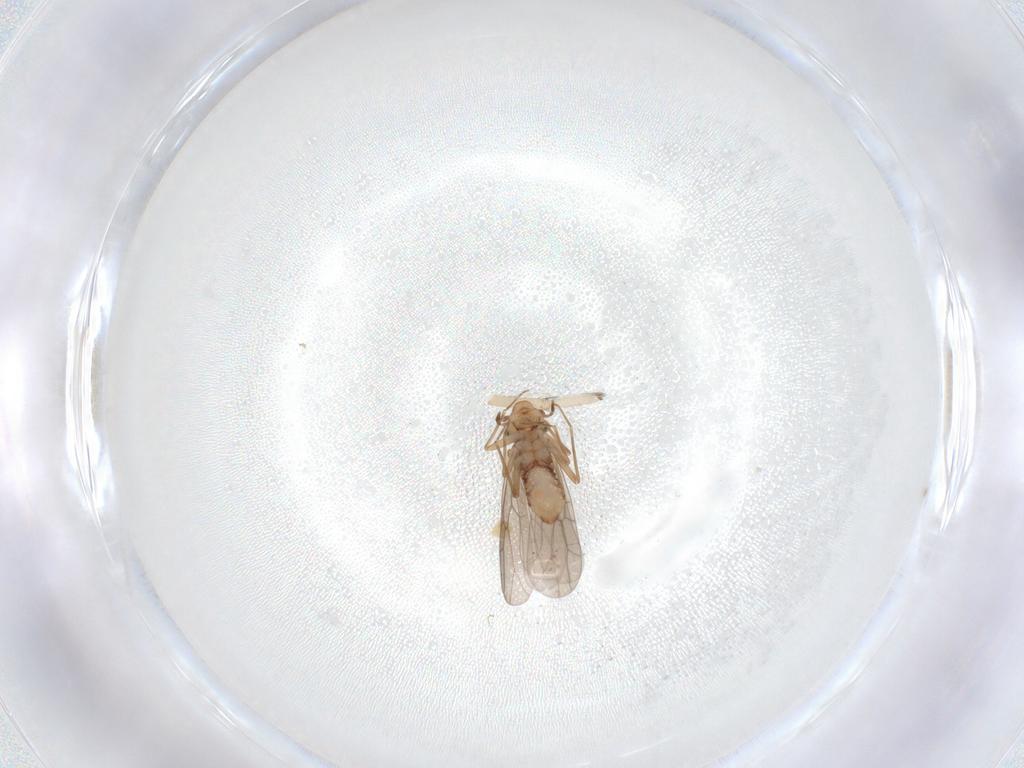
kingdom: Animalia
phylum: Arthropoda
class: Arachnida
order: Araneae
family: Gnaphosidae
